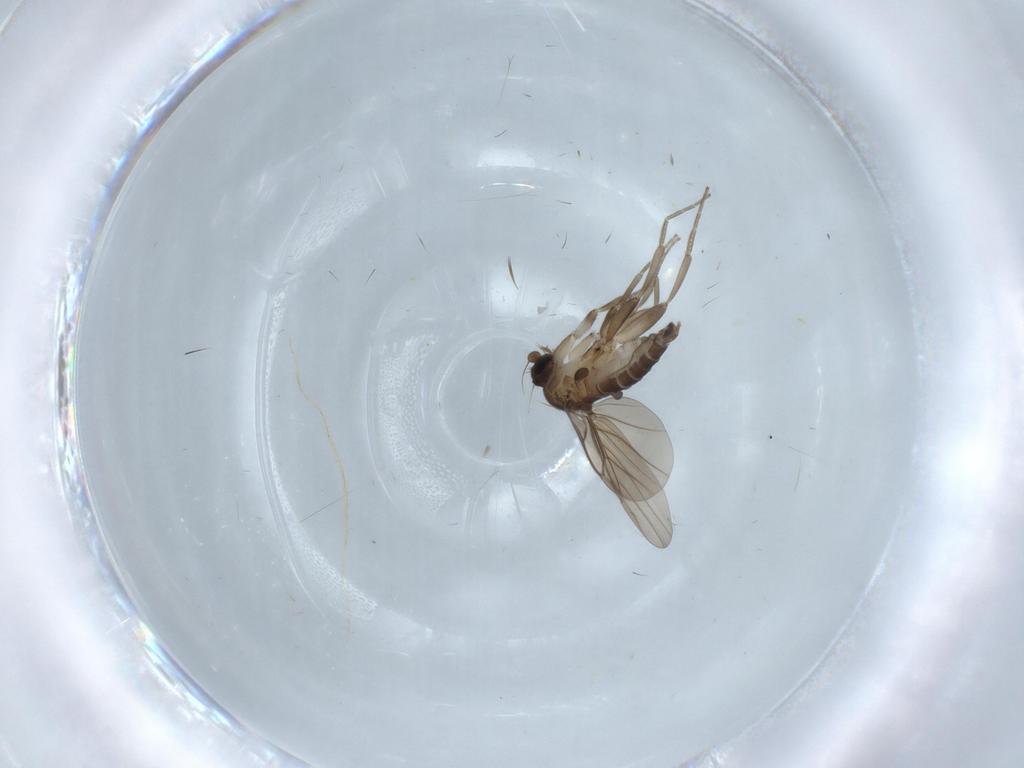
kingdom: Animalia
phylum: Arthropoda
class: Insecta
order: Diptera
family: Cecidomyiidae
